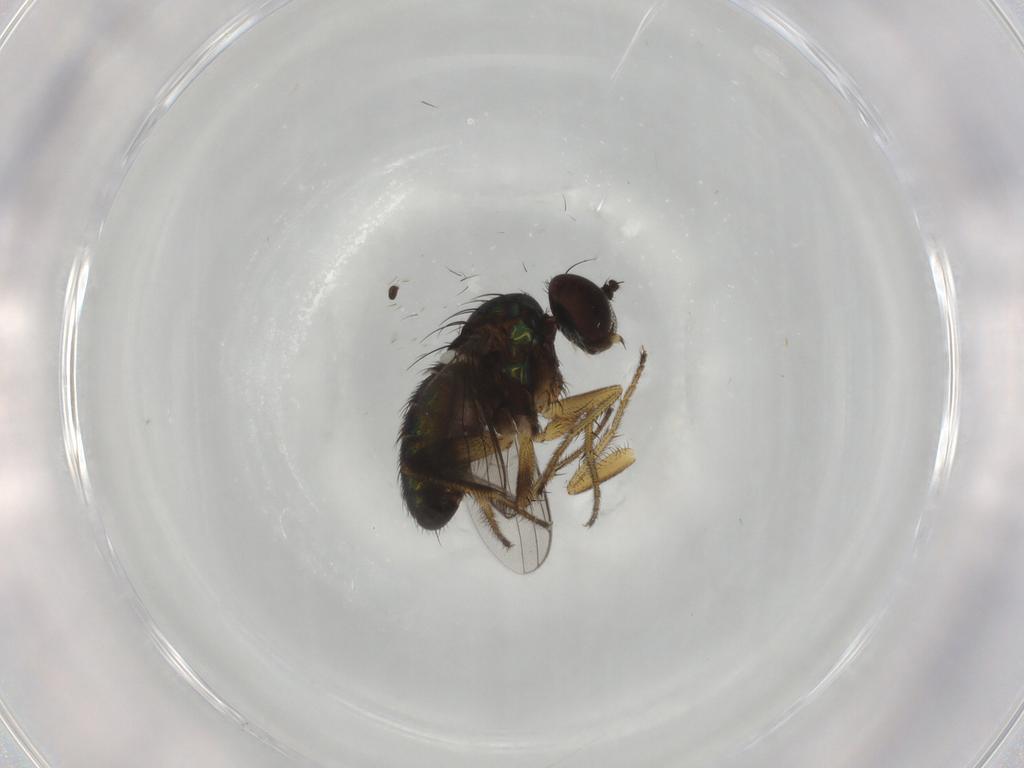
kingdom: Animalia
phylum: Arthropoda
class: Insecta
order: Diptera
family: Dolichopodidae
